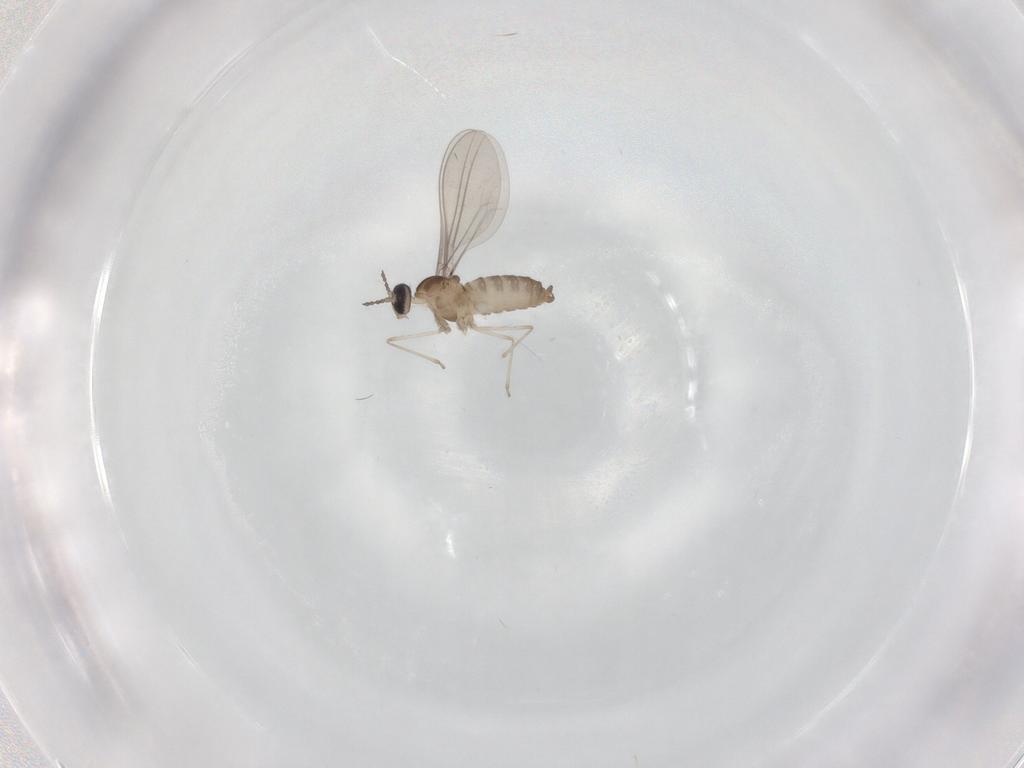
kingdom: Animalia
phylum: Arthropoda
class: Insecta
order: Diptera
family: Cecidomyiidae
